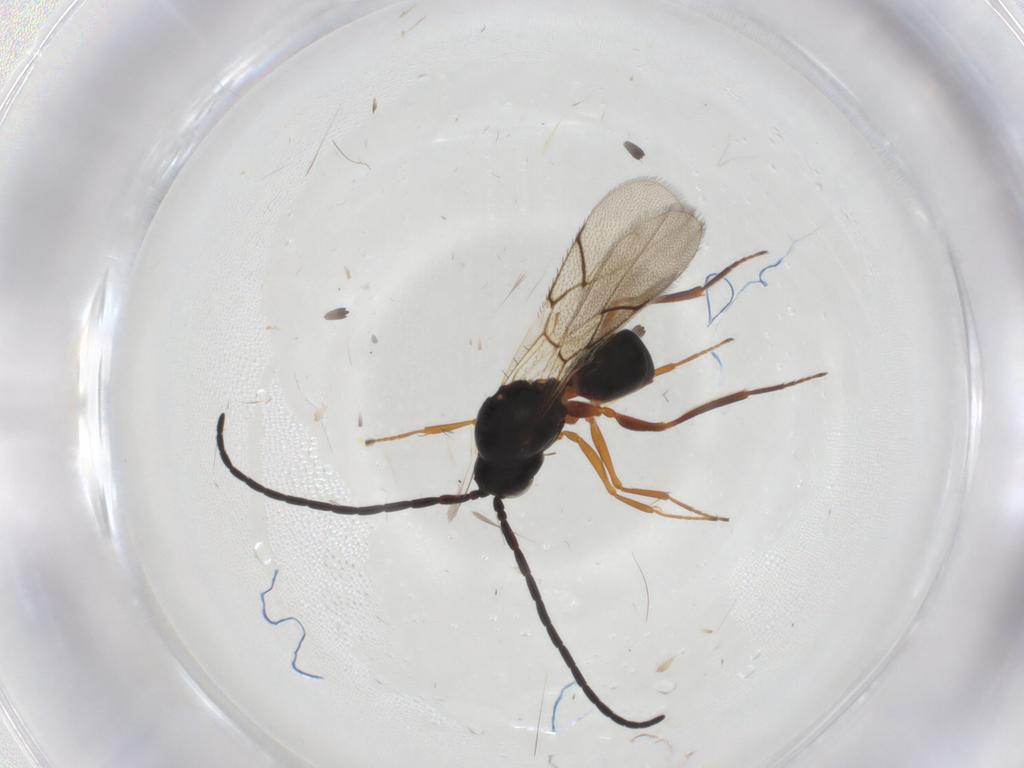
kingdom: Animalia
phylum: Arthropoda
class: Insecta
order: Hymenoptera
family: Figitidae
